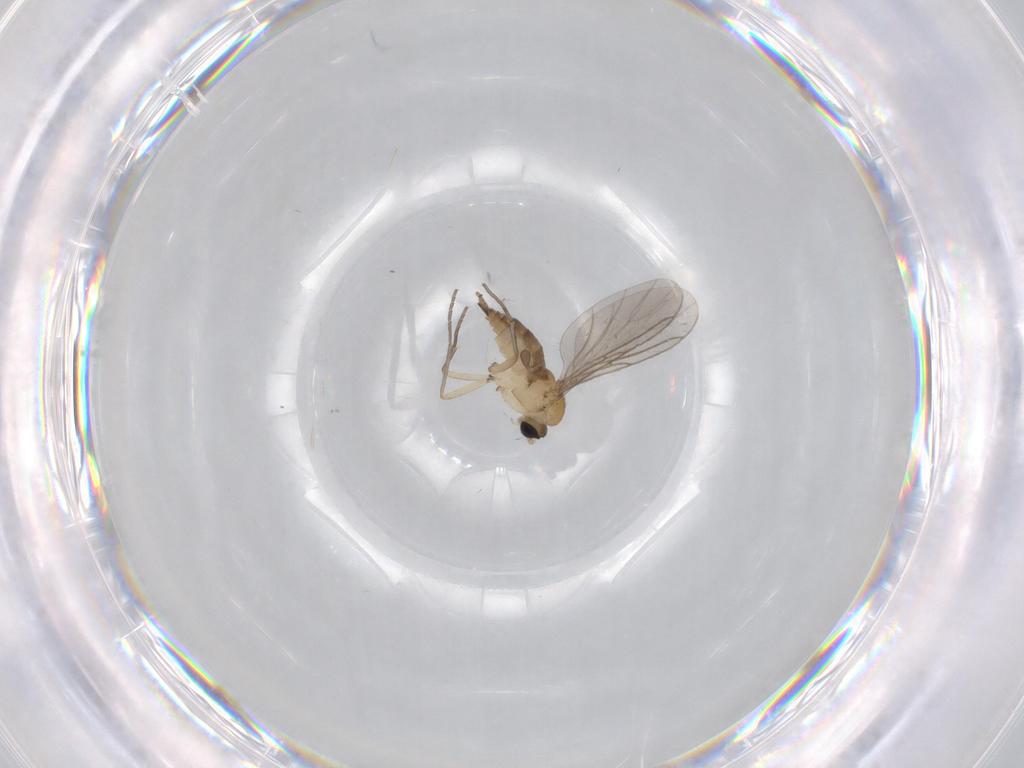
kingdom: Animalia
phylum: Arthropoda
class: Insecta
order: Diptera
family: Sciaridae
